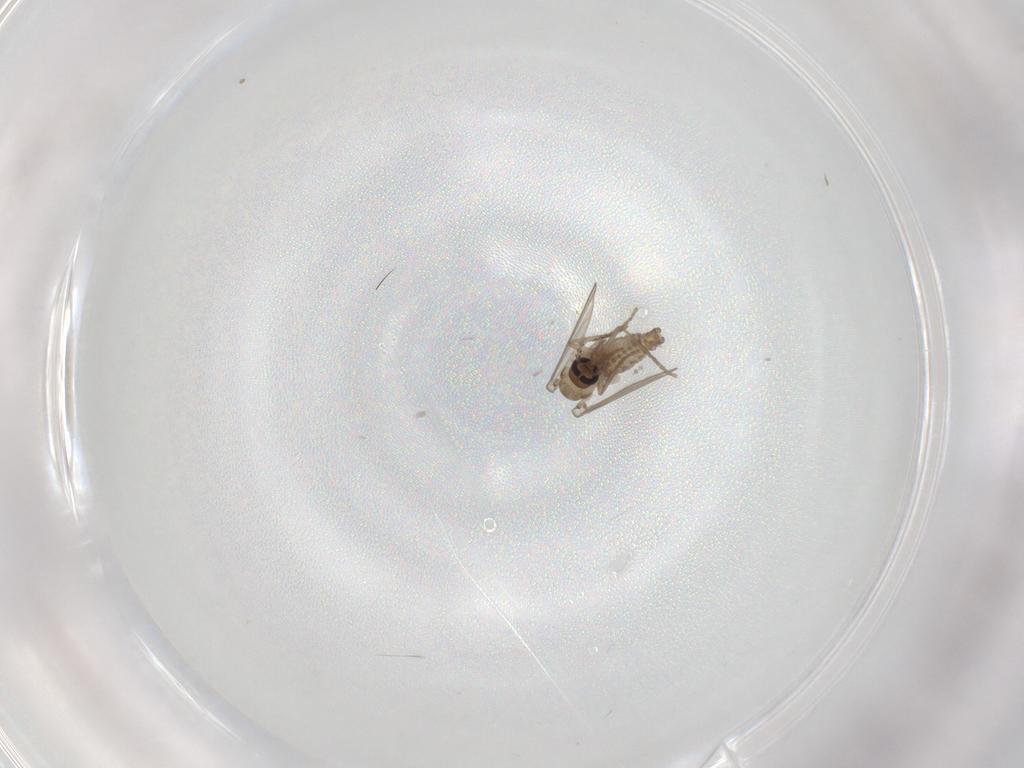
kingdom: Animalia
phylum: Arthropoda
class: Insecta
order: Diptera
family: Psychodidae
